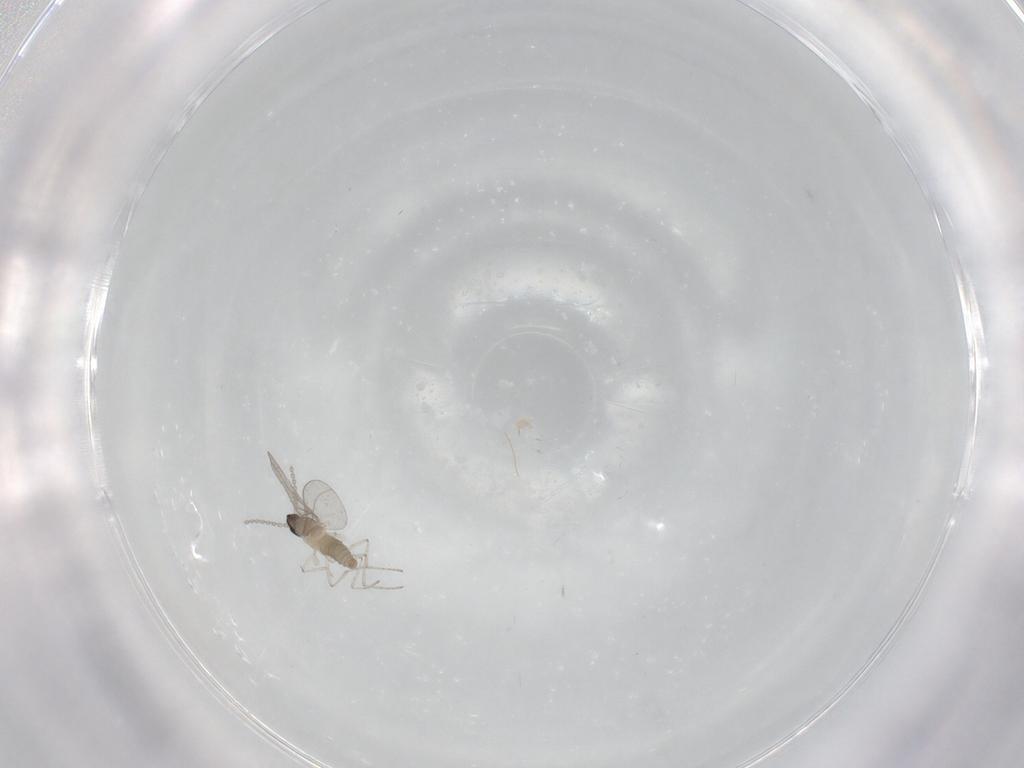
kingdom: Animalia
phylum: Arthropoda
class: Insecta
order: Diptera
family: Cecidomyiidae
